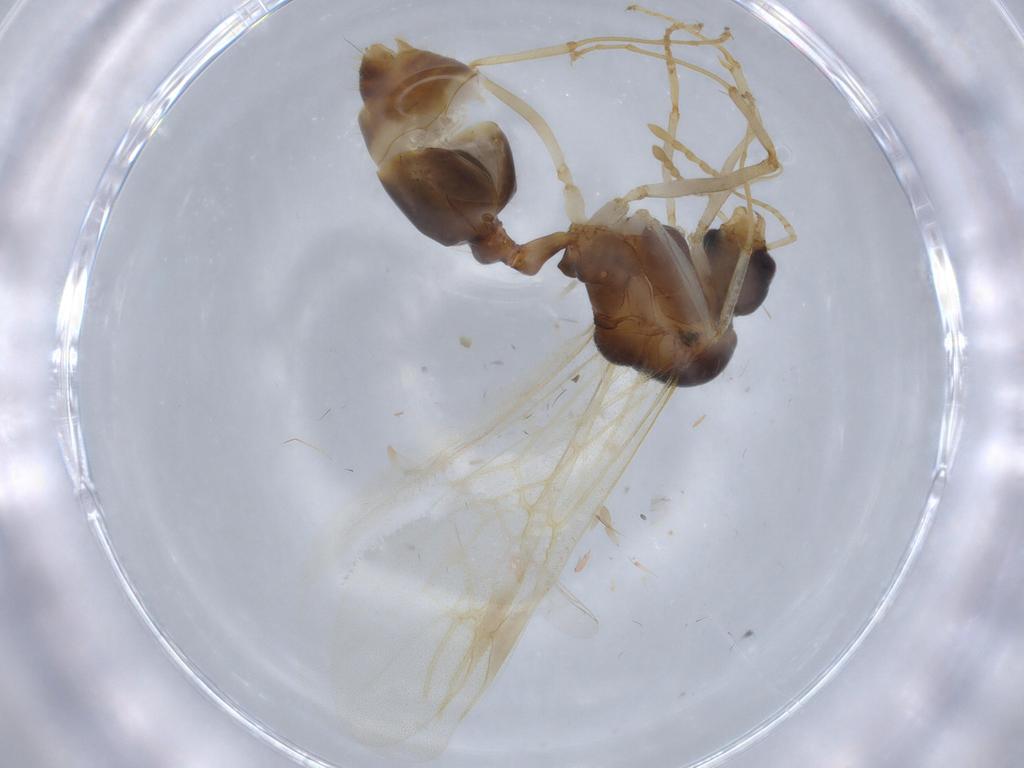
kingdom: Animalia
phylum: Arthropoda
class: Insecta
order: Hymenoptera
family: Formicidae
